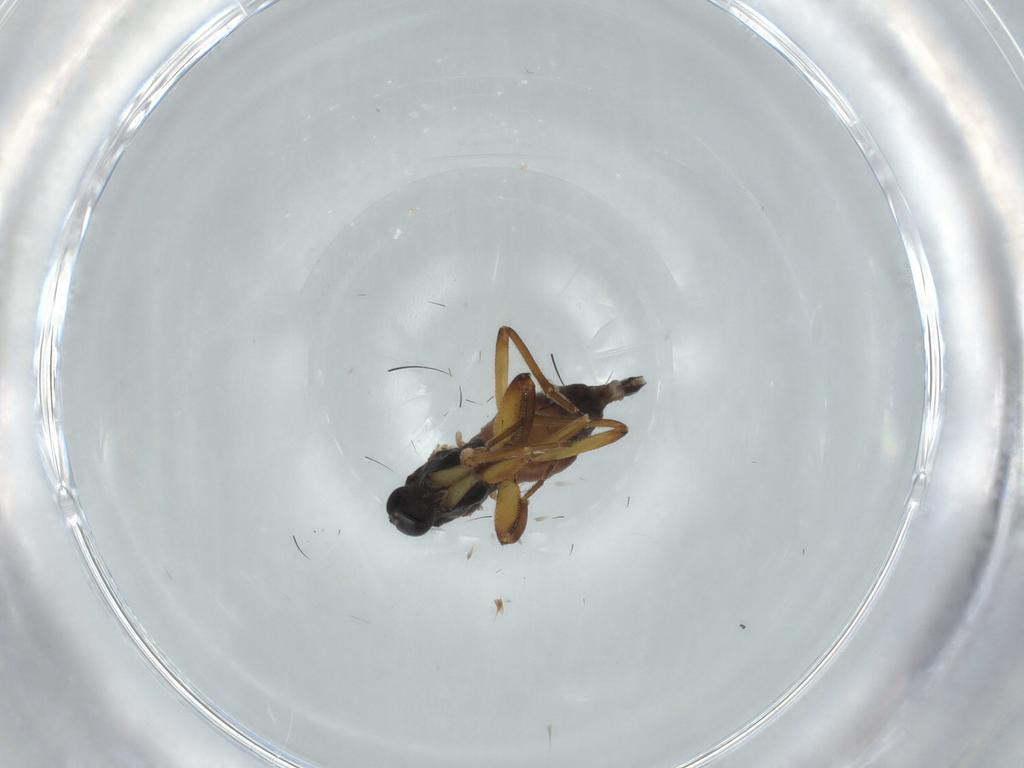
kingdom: Animalia
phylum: Arthropoda
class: Insecta
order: Diptera
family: Hybotidae
